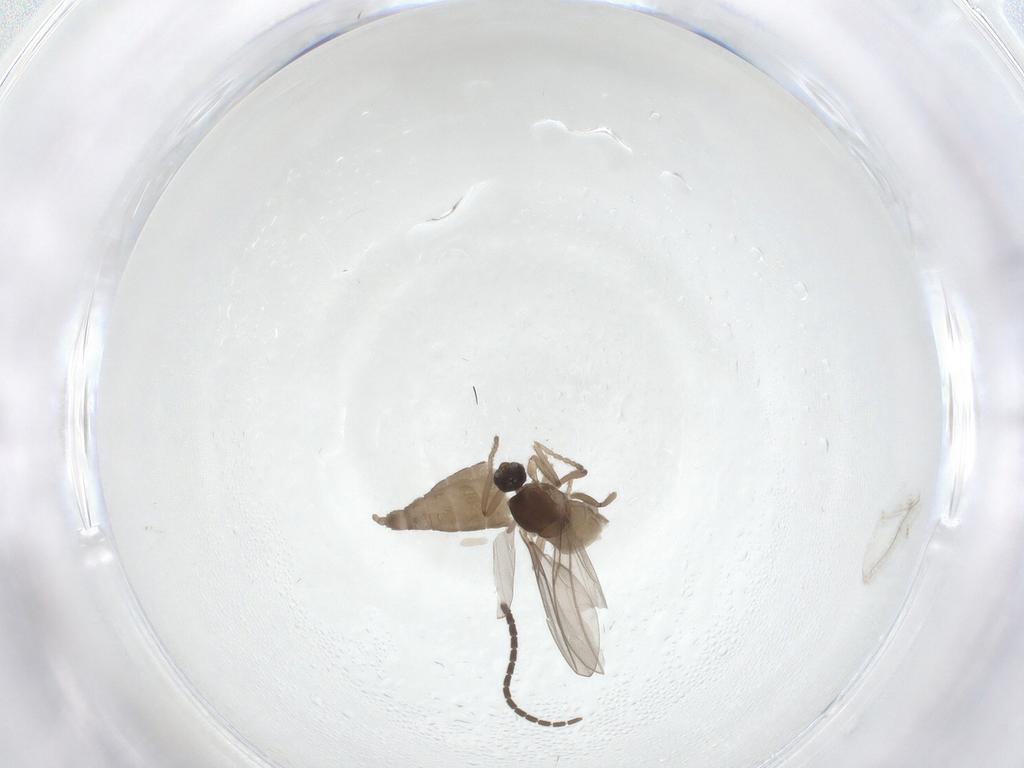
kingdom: Animalia
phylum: Arthropoda
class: Insecta
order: Diptera
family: Cecidomyiidae
